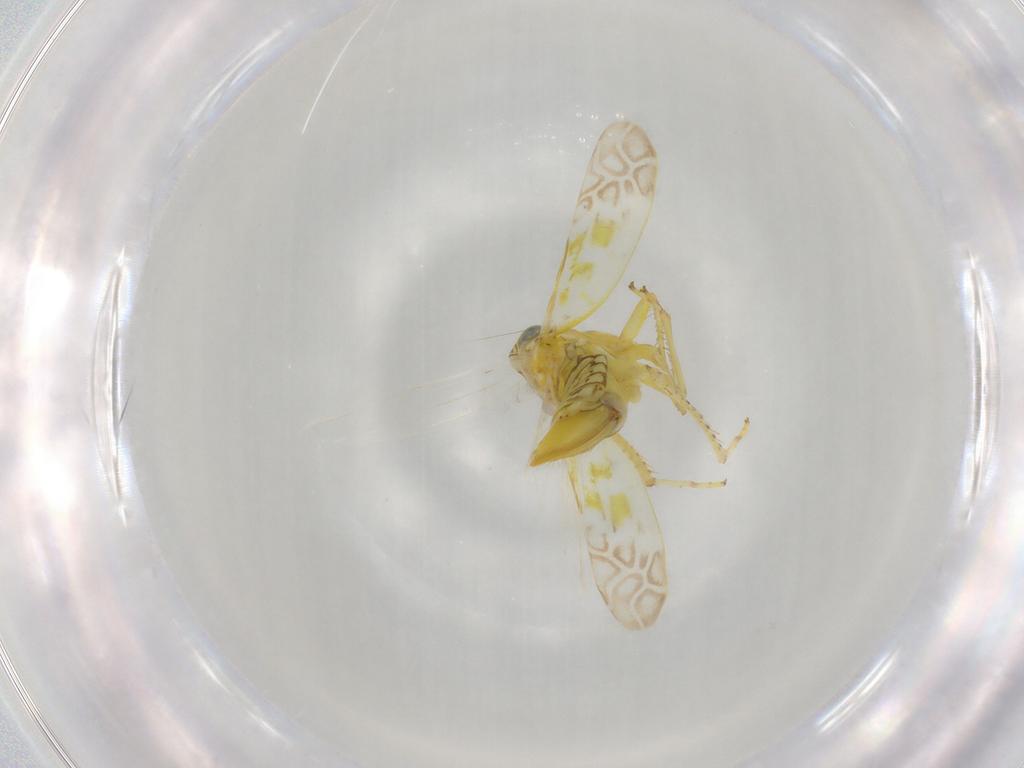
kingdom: Animalia
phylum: Arthropoda
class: Insecta
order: Hemiptera
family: Cicadellidae
